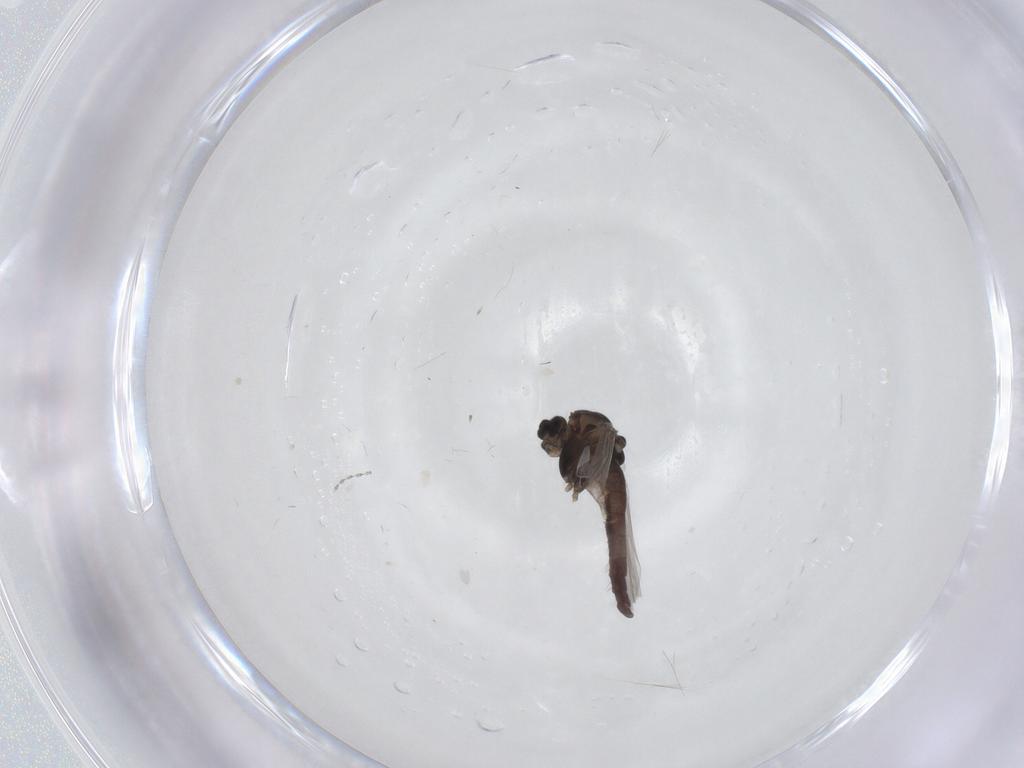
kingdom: Animalia
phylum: Arthropoda
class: Insecta
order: Diptera
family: Chironomidae
